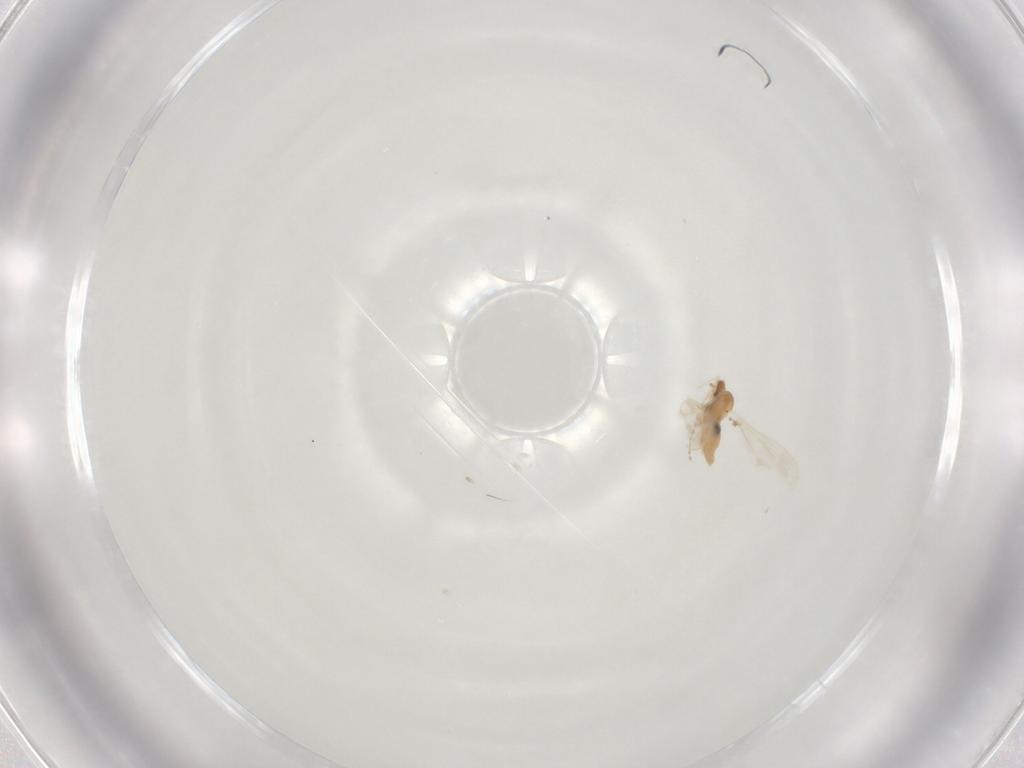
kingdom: Animalia
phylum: Arthropoda
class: Insecta
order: Diptera
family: Cecidomyiidae
